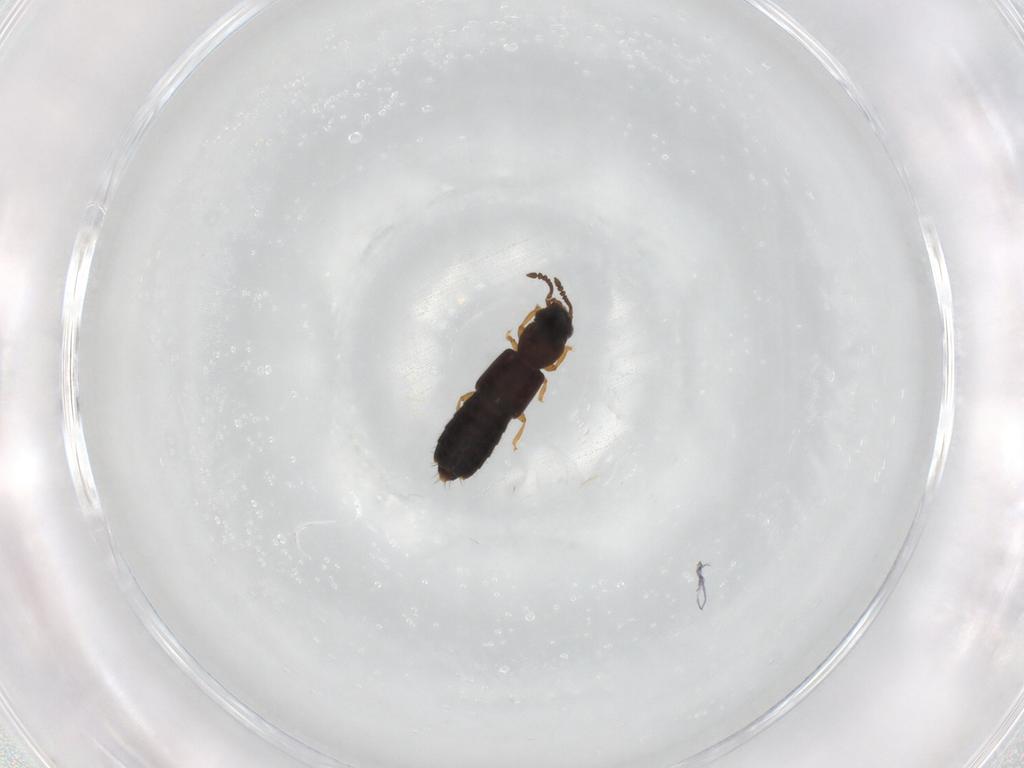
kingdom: Animalia
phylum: Arthropoda
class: Insecta
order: Coleoptera
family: Staphylinidae
